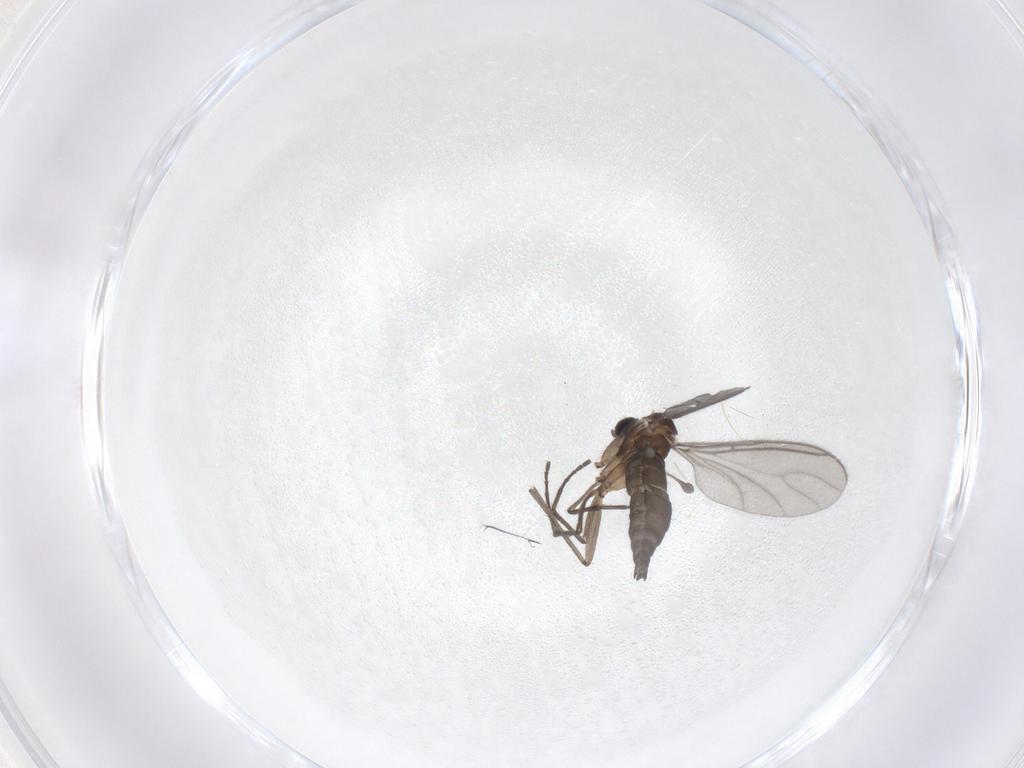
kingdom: Animalia
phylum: Arthropoda
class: Insecta
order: Diptera
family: Sciaridae
